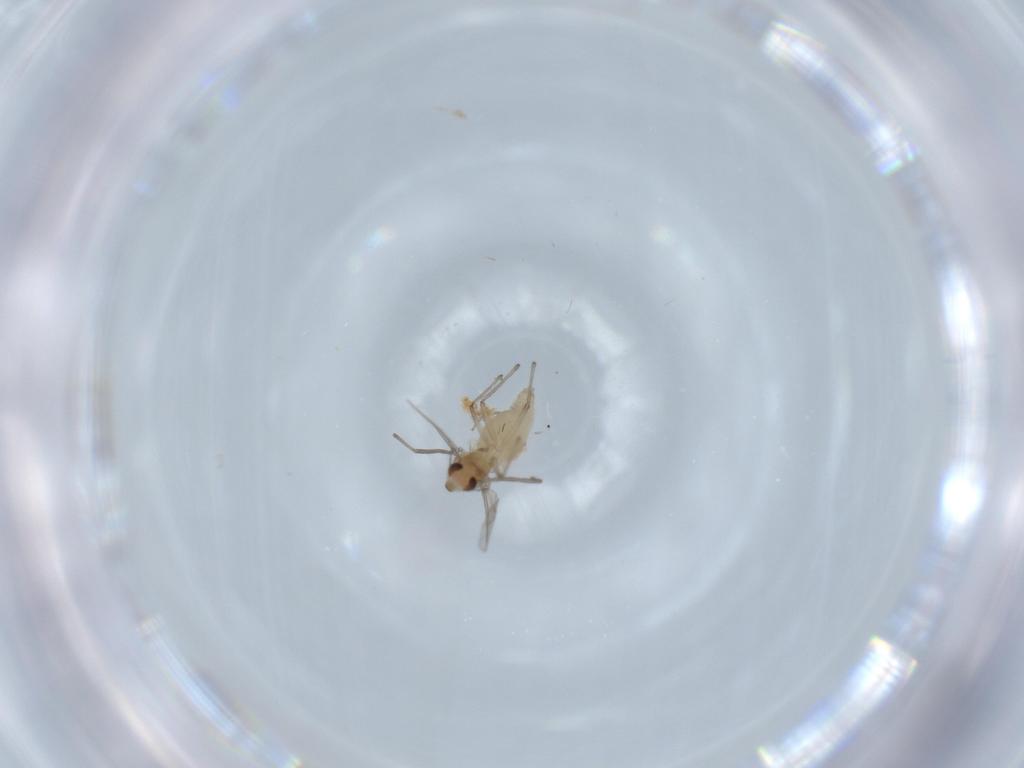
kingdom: Animalia
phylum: Arthropoda
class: Insecta
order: Diptera
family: Chironomidae
